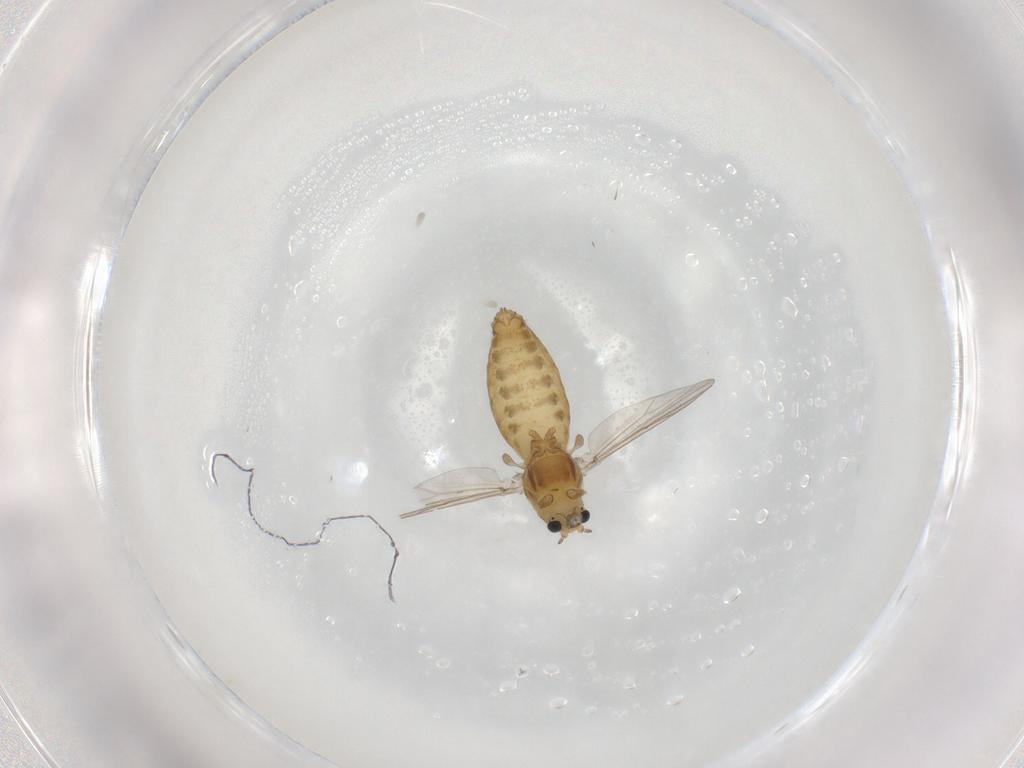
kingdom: Animalia
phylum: Arthropoda
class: Insecta
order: Diptera
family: Chironomidae
